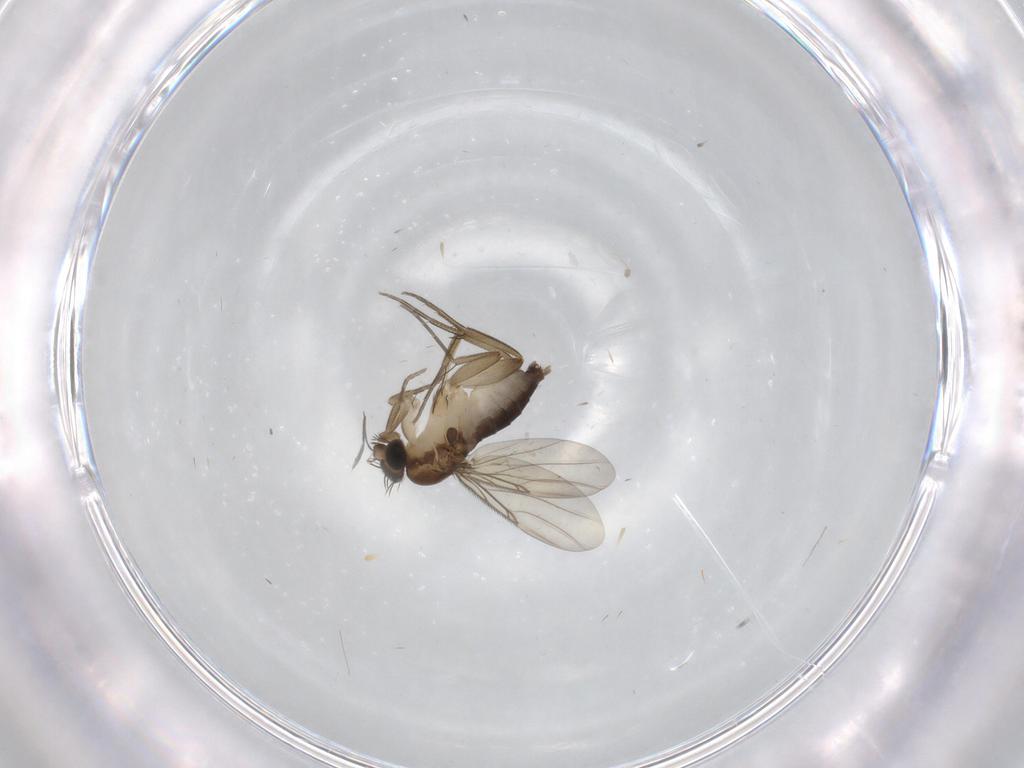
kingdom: Animalia
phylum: Arthropoda
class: Insecta
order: Diptera
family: Phoridae
